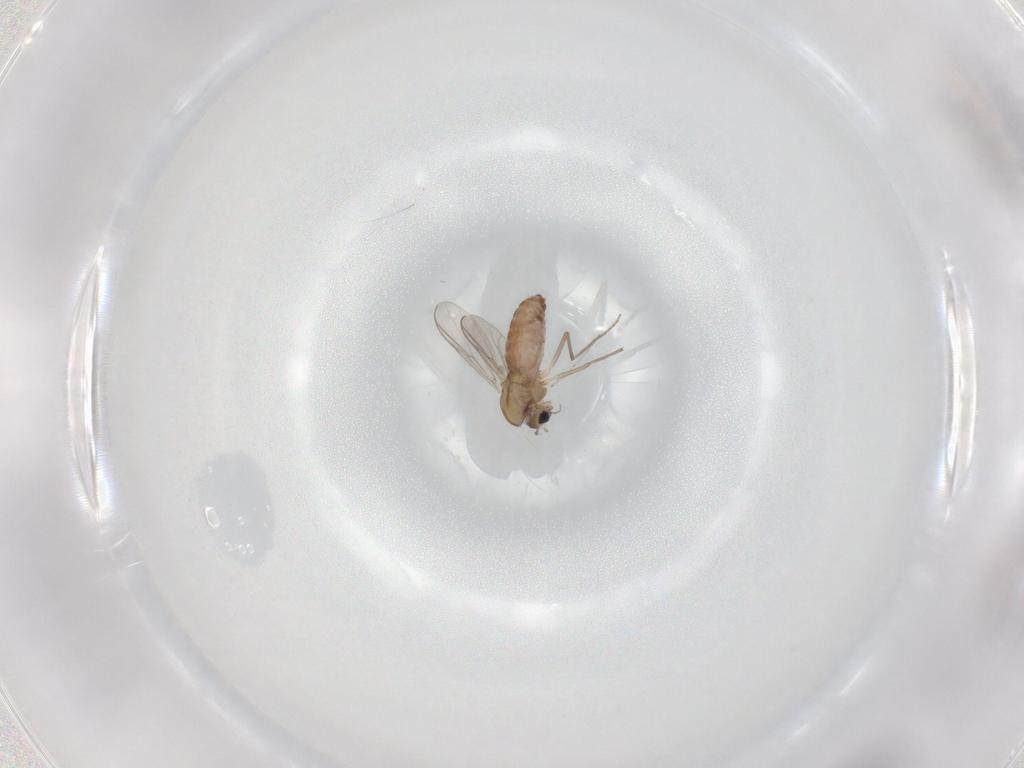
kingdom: Animalia
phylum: Arthropoda
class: Insecta
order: Diptera
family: Chironomidae
